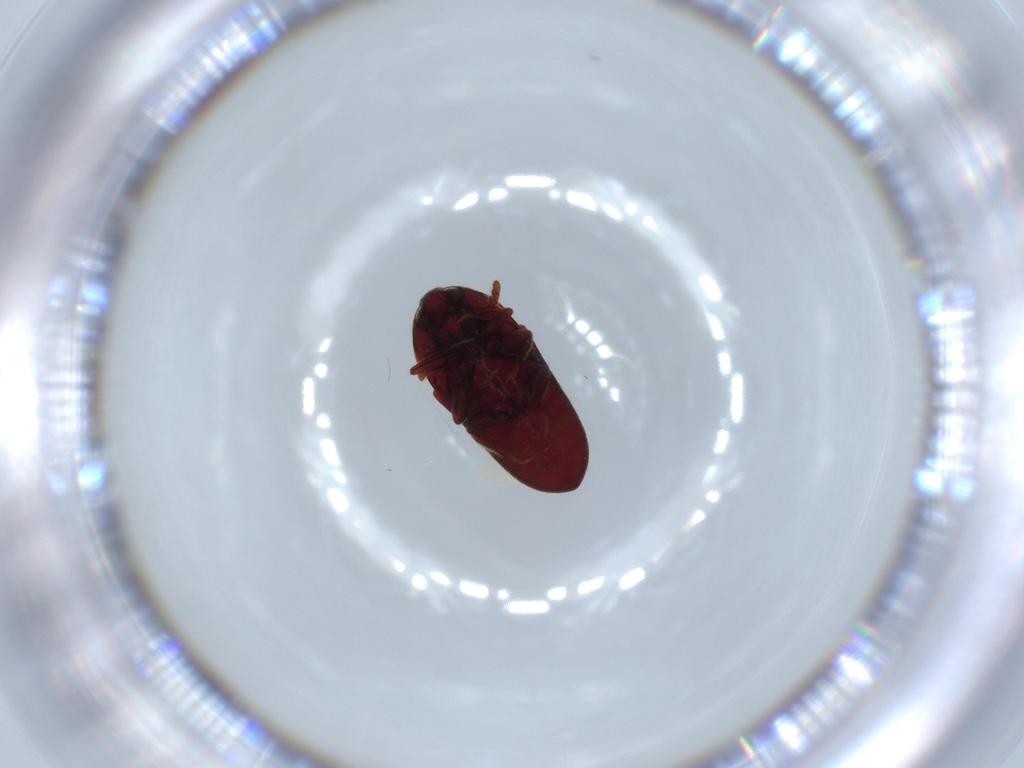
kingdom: Animalia
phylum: Arthropoda
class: Insecta
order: Coleoptera
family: Throscidae
